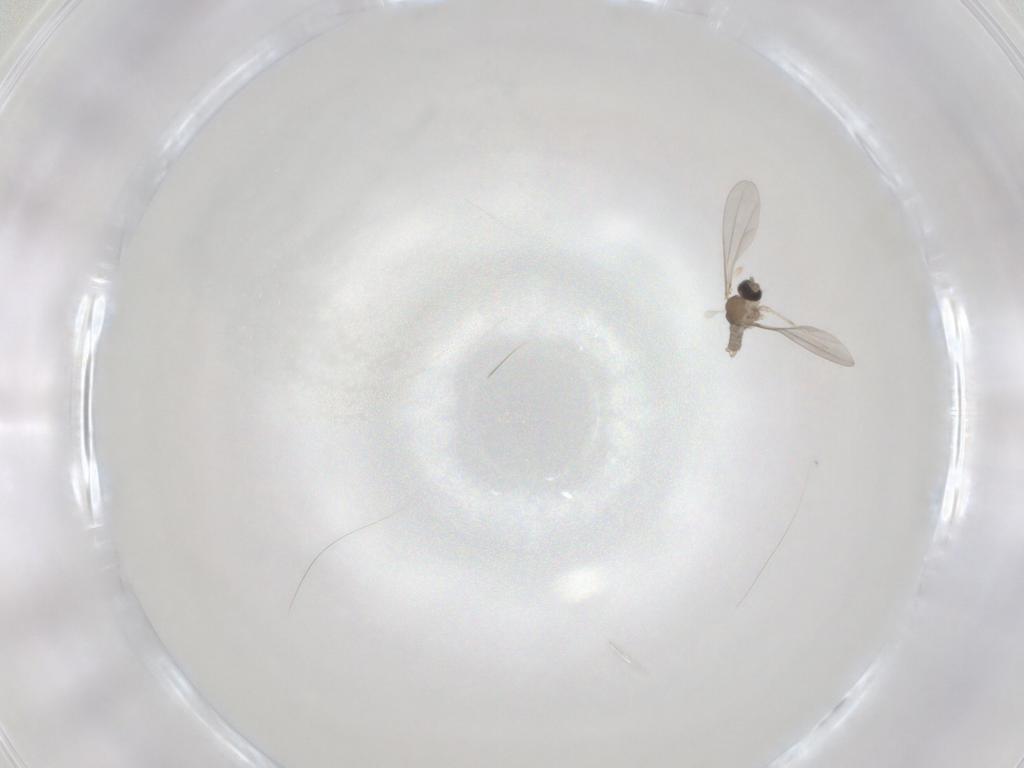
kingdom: Animalia
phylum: Arthropoda
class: Insecta
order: Diptera
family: Cecidomyiidae
